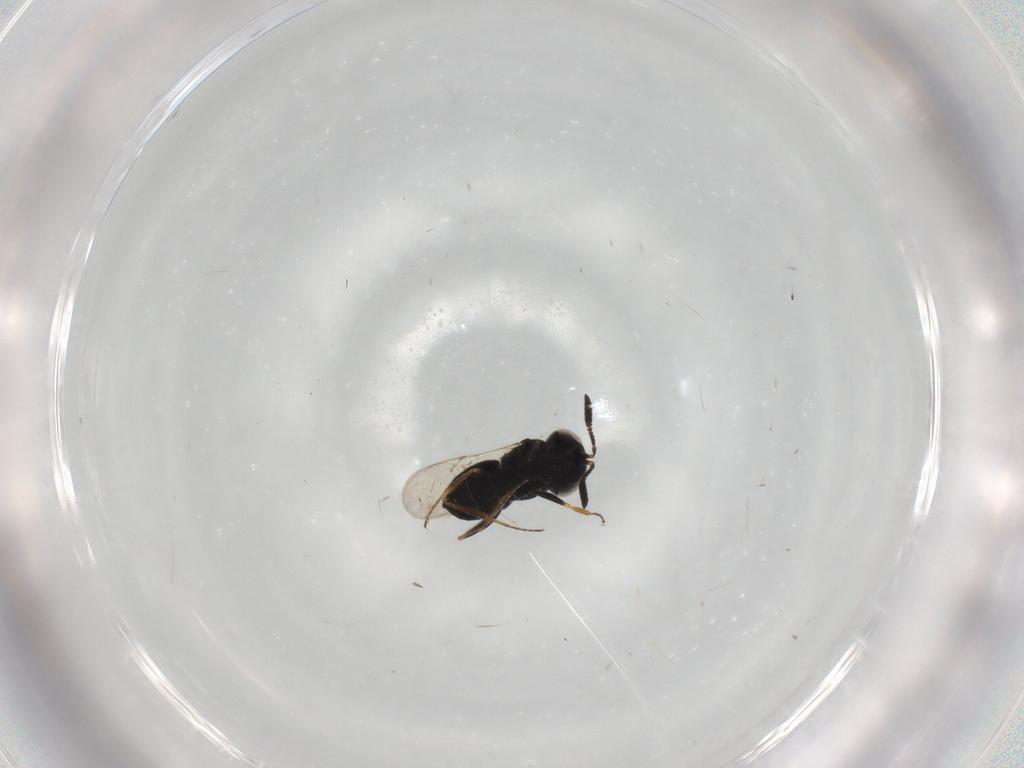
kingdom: Animalia
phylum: Arthropoda
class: Insecta
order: Hymenoptera
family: Scelionidae
